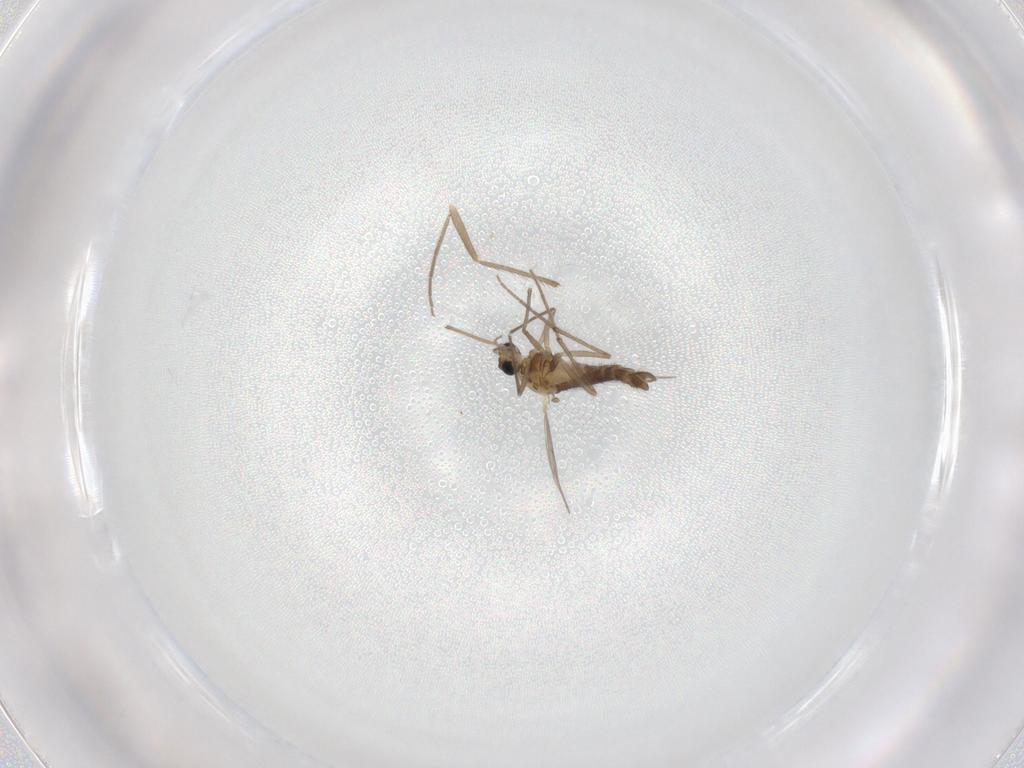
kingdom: Animalia
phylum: Arthropoda
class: Insecta
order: Diptera
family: Chironomidae
